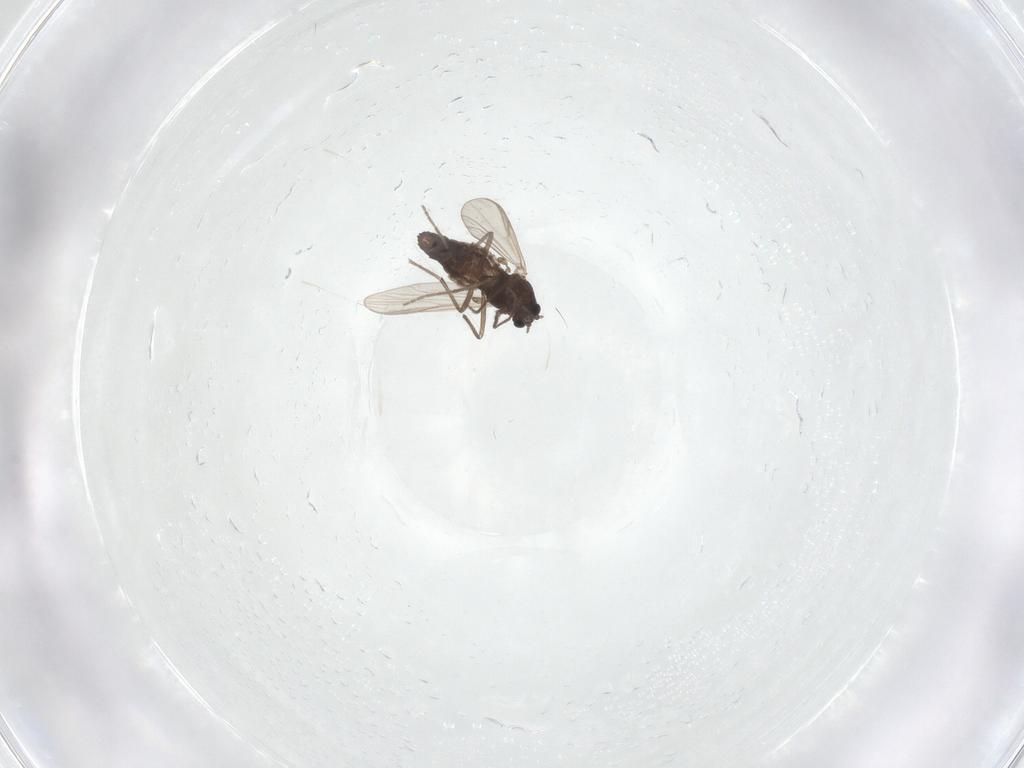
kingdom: Animalia
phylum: Arthropoda
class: Insecta
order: Diptera
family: Chironomidae
